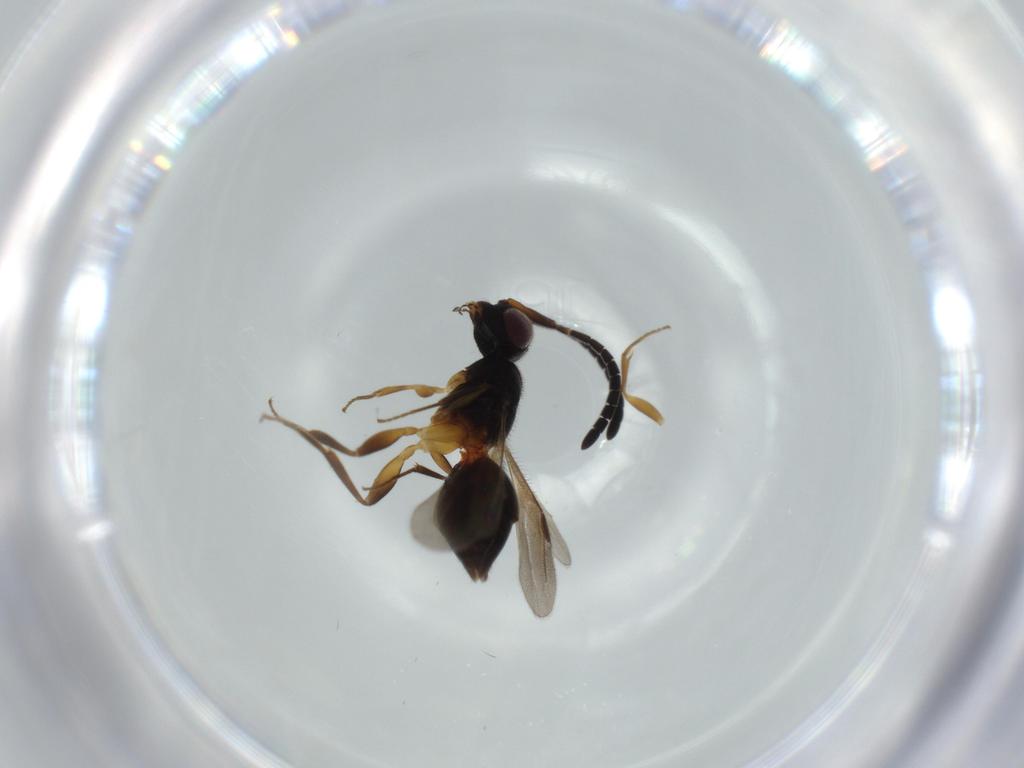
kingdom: Animalia
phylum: Arthropoda
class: Insecta
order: Hymenoptera
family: Megaspilidae
